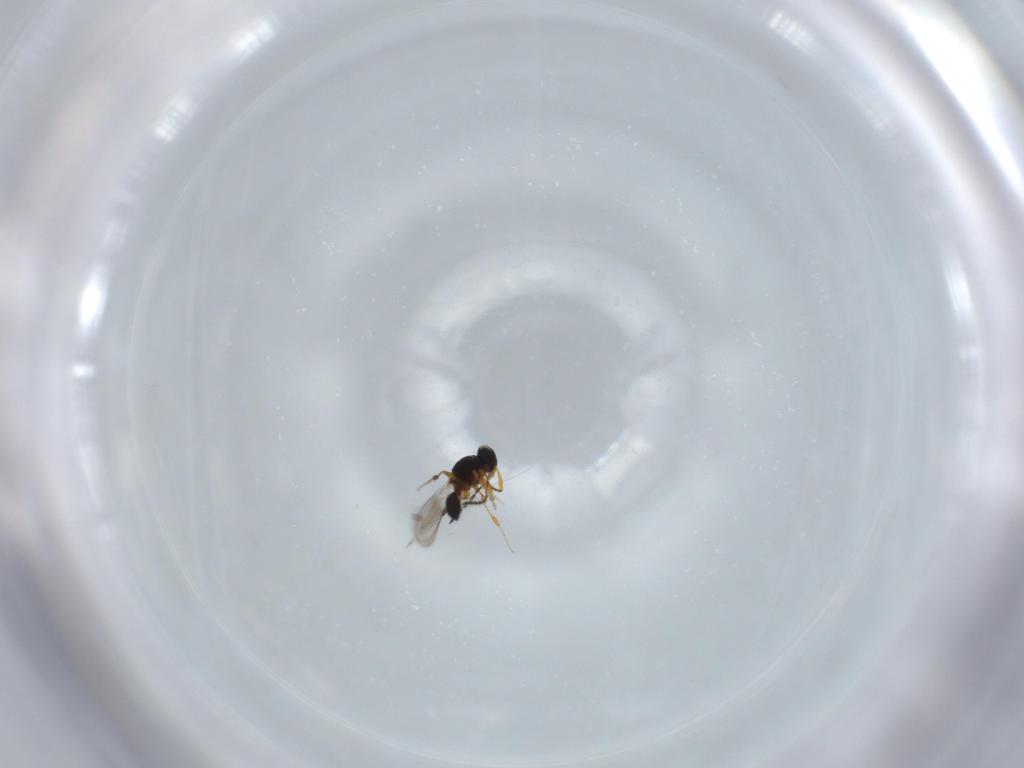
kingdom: Animalia
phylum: Arthropoda
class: Insecta
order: Hymenoptera
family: Platygastridae
